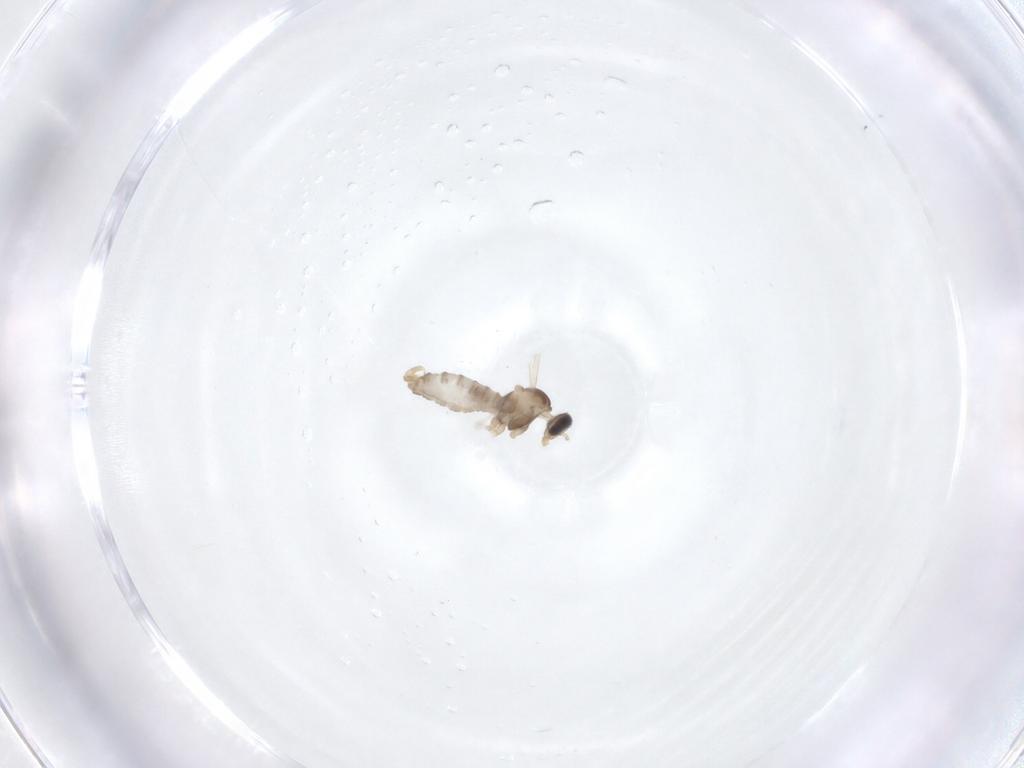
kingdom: Animalia
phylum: Arthropoda
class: Insecta
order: Diptera
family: Cecidomyiidae
